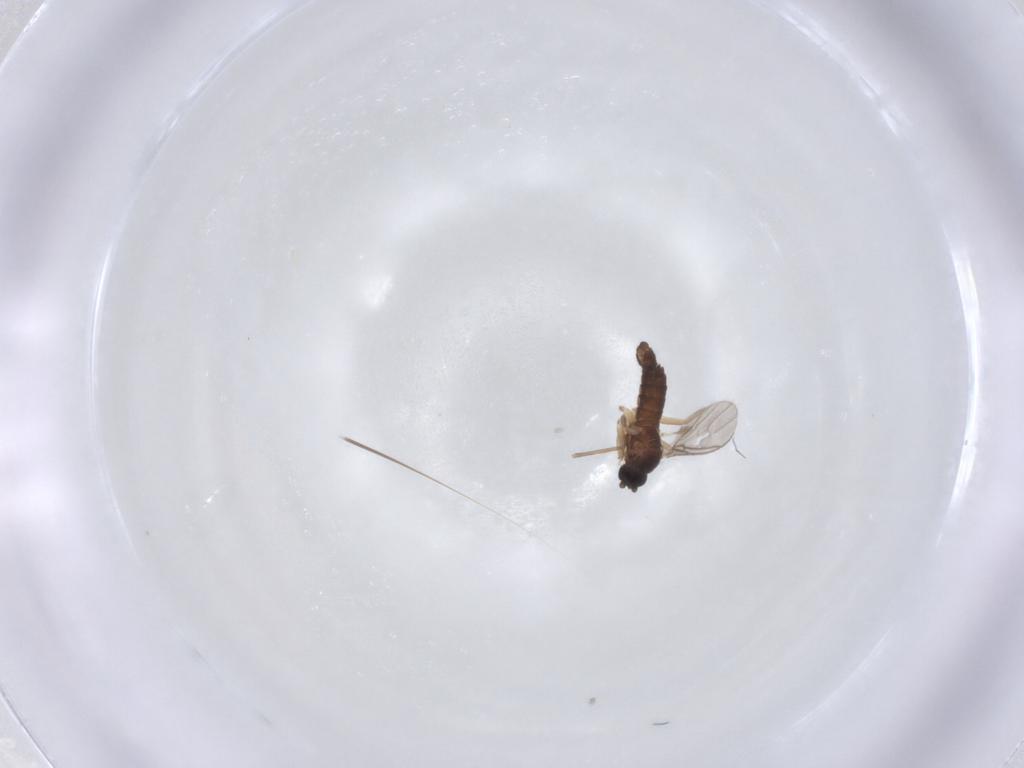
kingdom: Animalia
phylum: Arthropoda
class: Insecta
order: Diptera
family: Sciaridae
